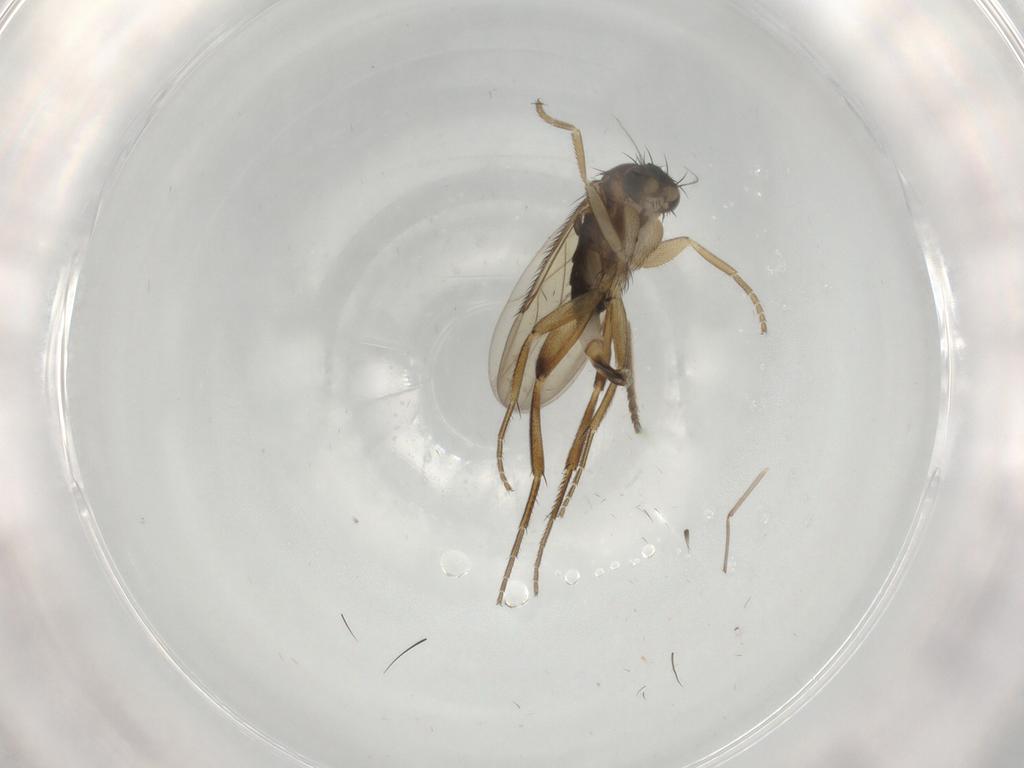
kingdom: Animalia
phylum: Arthropoda
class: Insecta
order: Diptera
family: Phoridae
